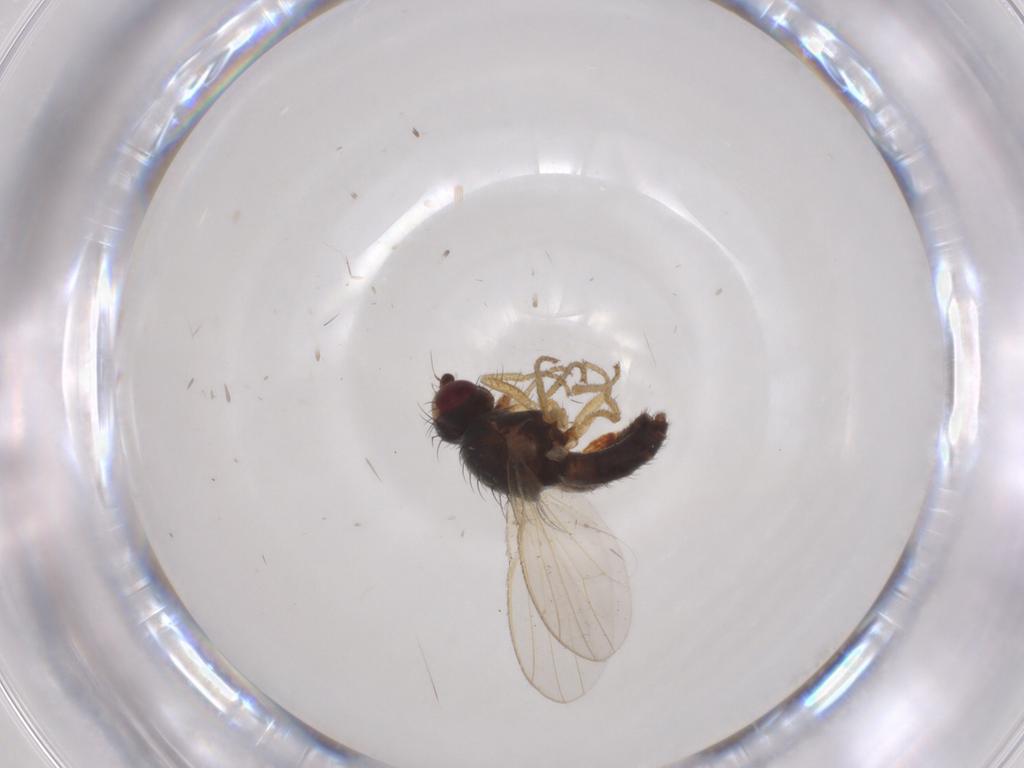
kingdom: Animalia
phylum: Arthropoda
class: Insecta
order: Diptera
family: Heleomyzidae
